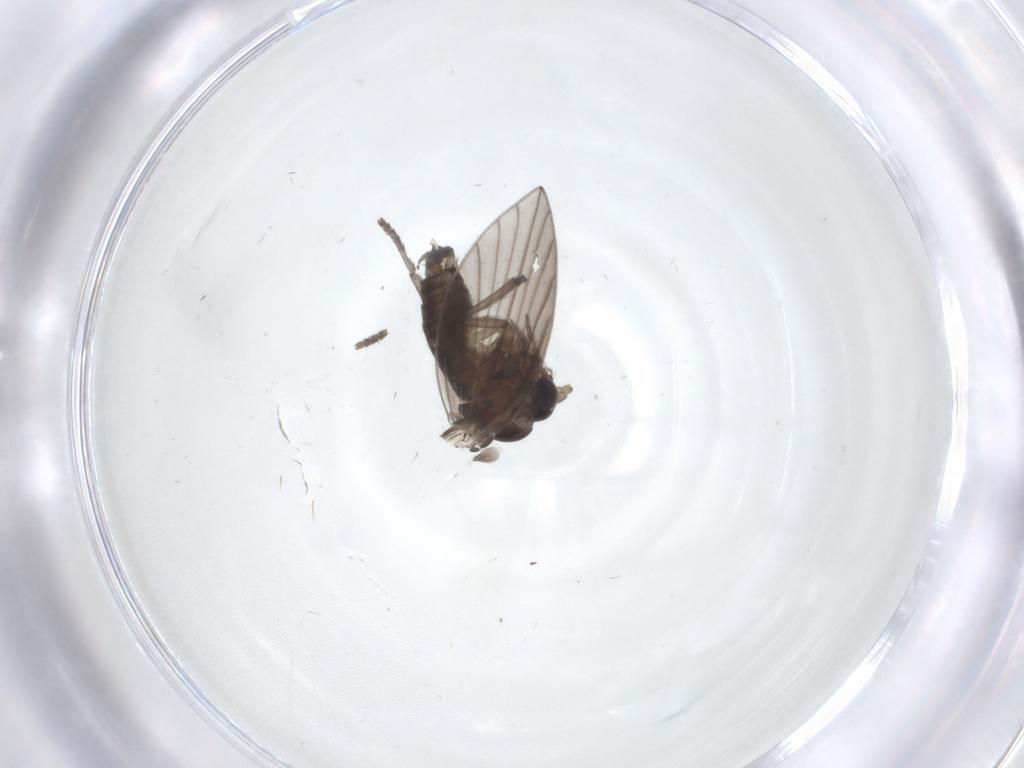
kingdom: Animalia
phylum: Arthropoda
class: Insecta
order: Diptera
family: Psychodidae
